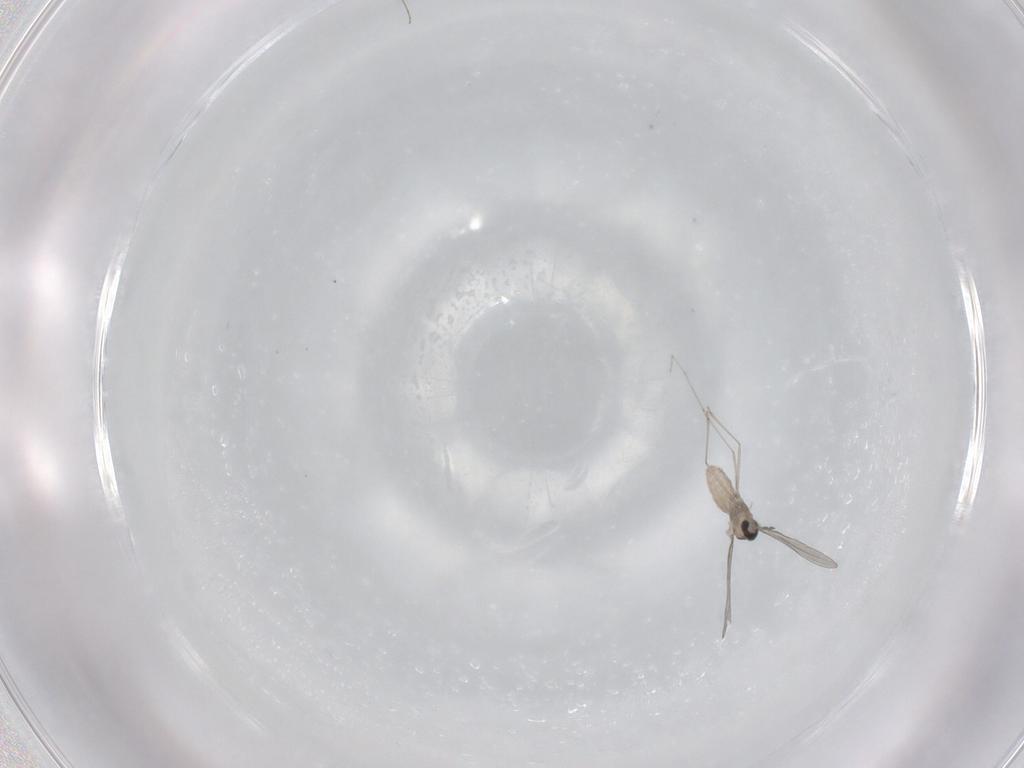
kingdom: Animalia
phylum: Arthropoda
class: Insecta
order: Diptera
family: Cecidomyiidae
